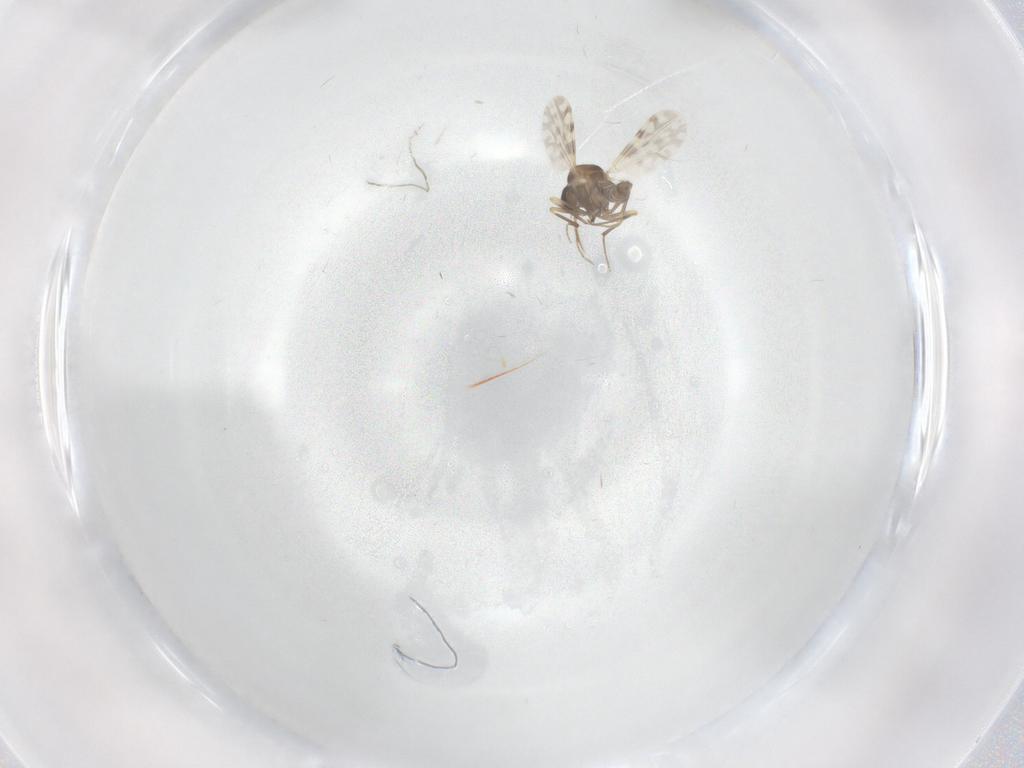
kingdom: Animalia
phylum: Arthropoda
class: Insecta
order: Diptera
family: Ceratopogonidae
